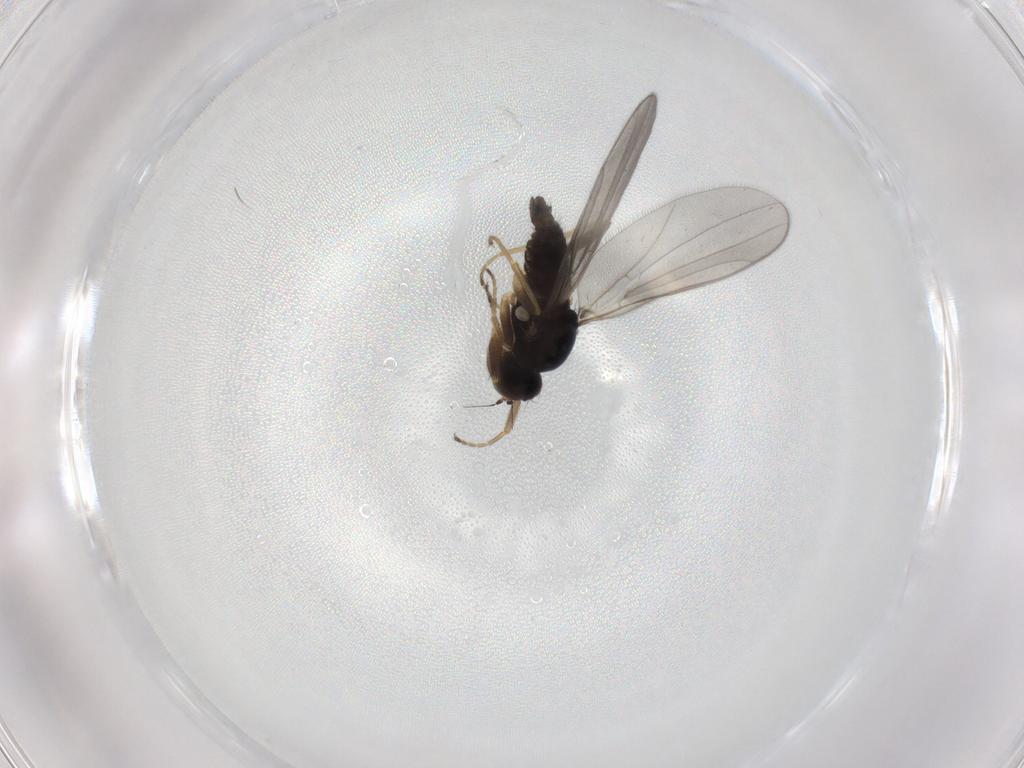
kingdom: Animalia
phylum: Arthropoda
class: Insecta
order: Diptera
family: Hybotidae
